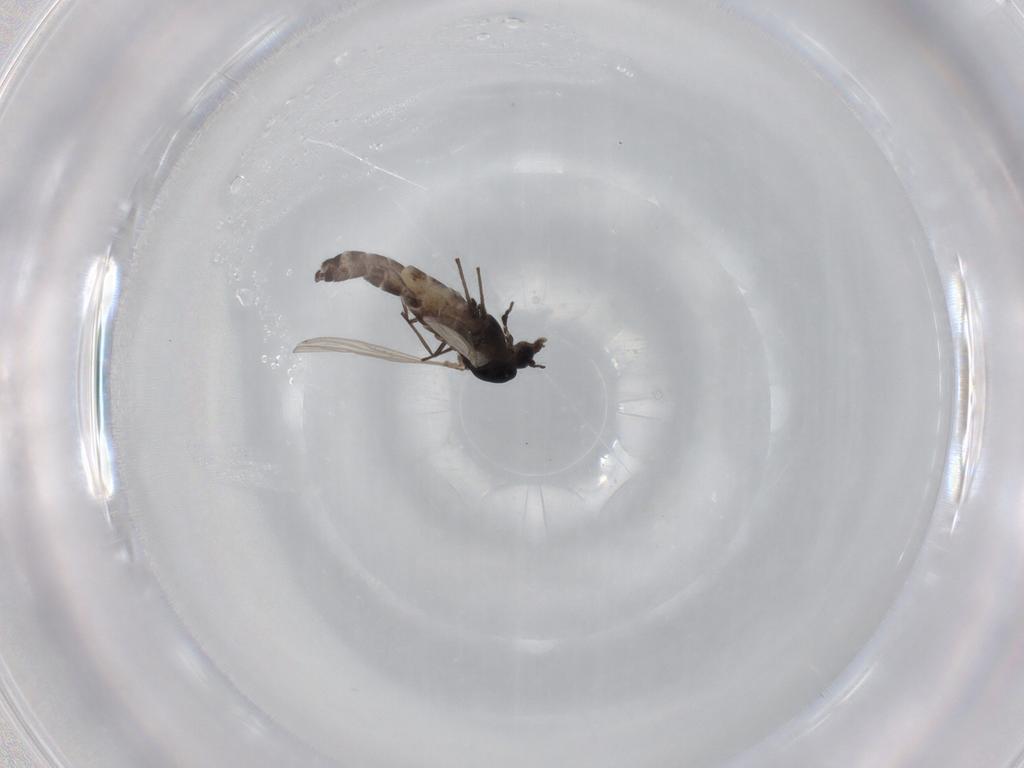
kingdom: Animalia
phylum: Arthropoda
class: Insecta
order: Diptera
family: Chironomidae
